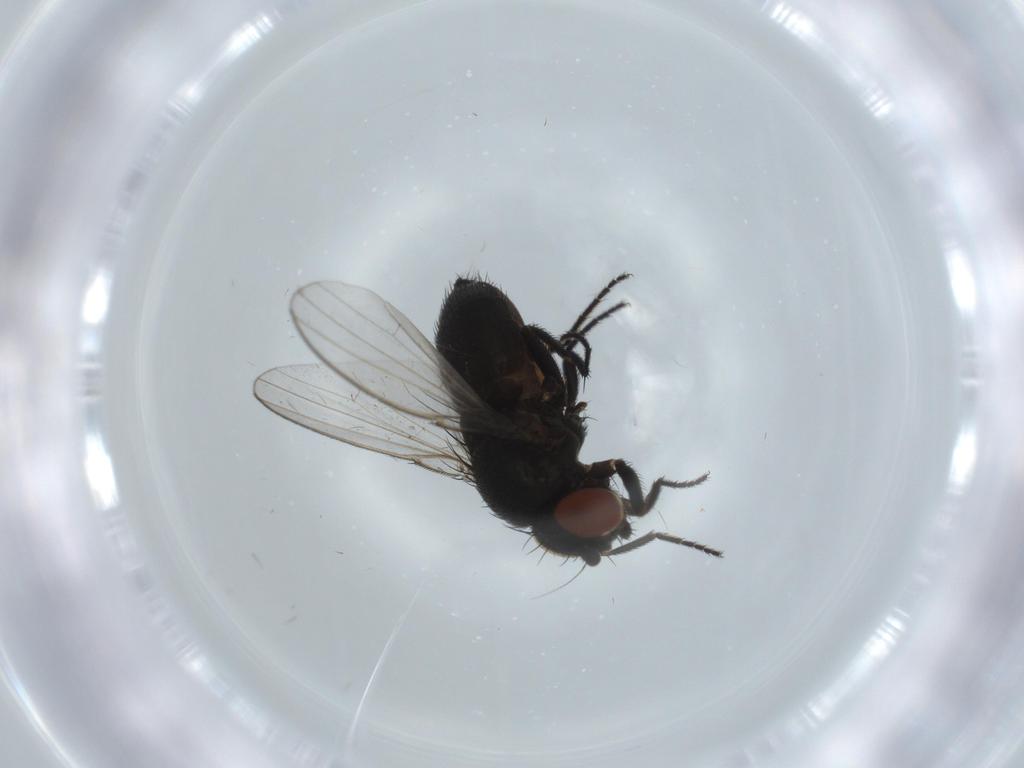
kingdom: Animalia
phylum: Arthropoda
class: Insecta
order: Diptera
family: Milichiidae
